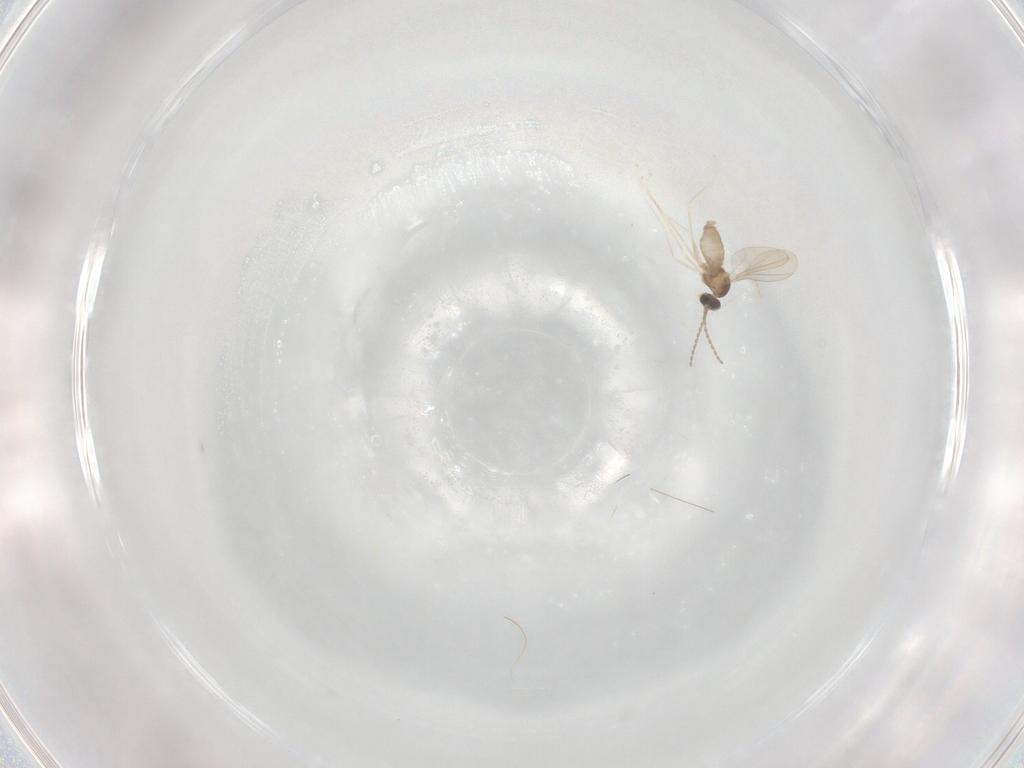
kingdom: Animalia
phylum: Arthropoda
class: Insecta
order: Diptera
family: Cecidomyiidae
